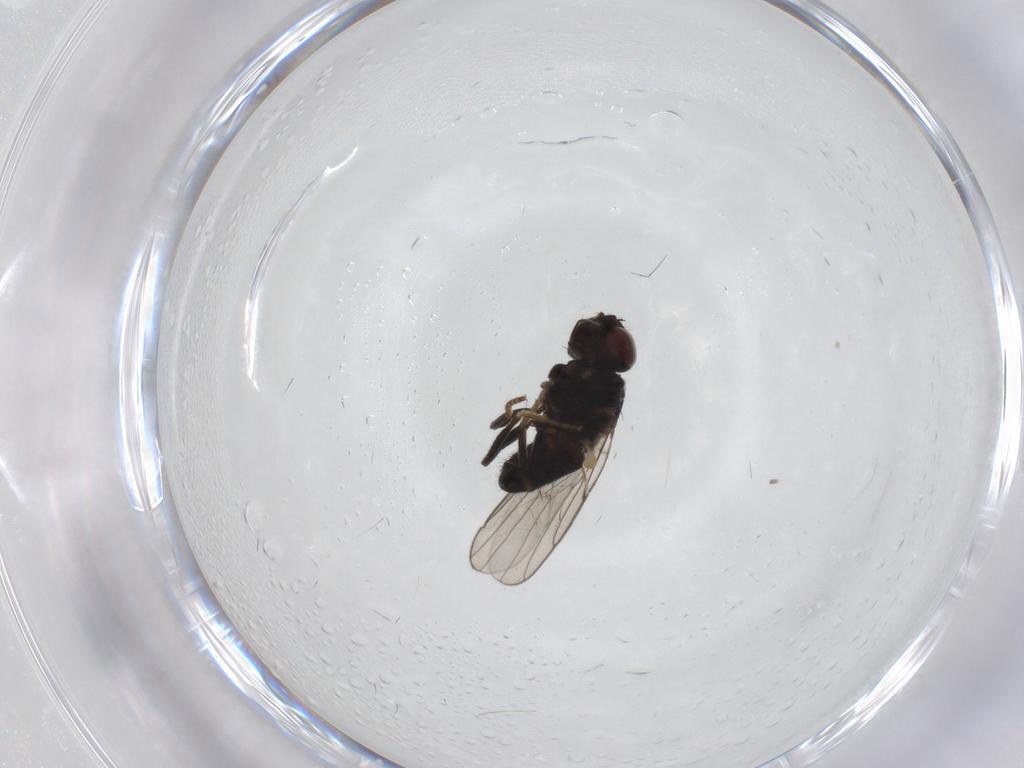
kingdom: Animalia
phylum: Arthropoda
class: Insecta
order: Diptera
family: Chloropidae
